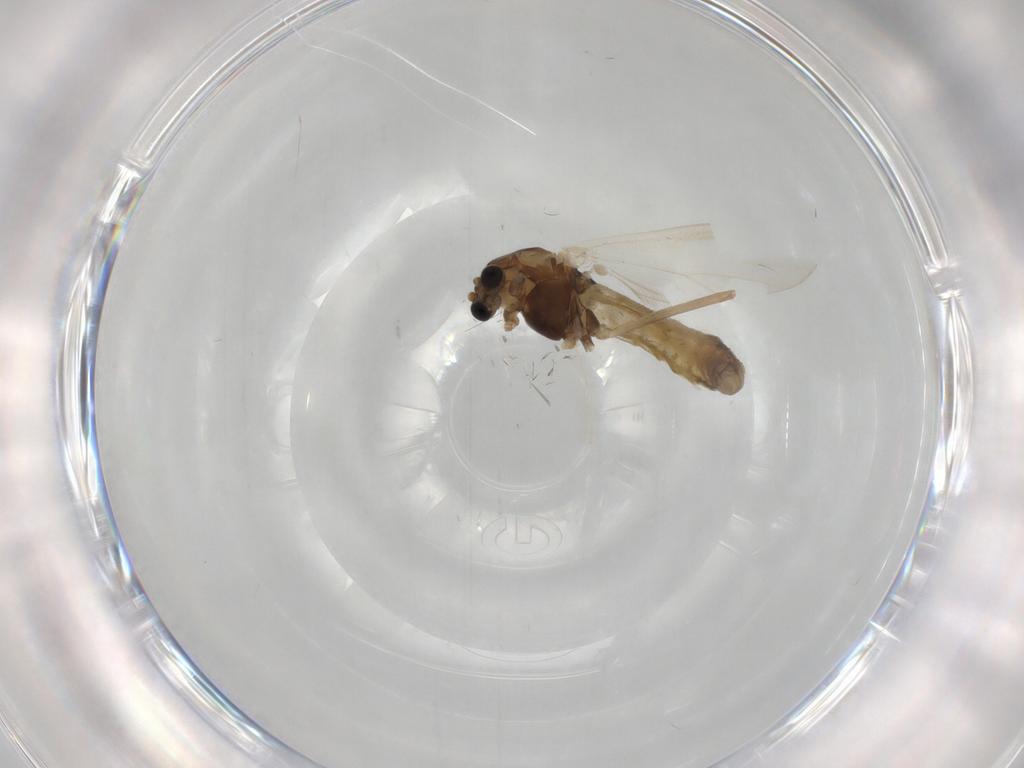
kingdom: Animalia
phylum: Arthropoda
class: Insecta
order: Diptera
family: Chironomidae
